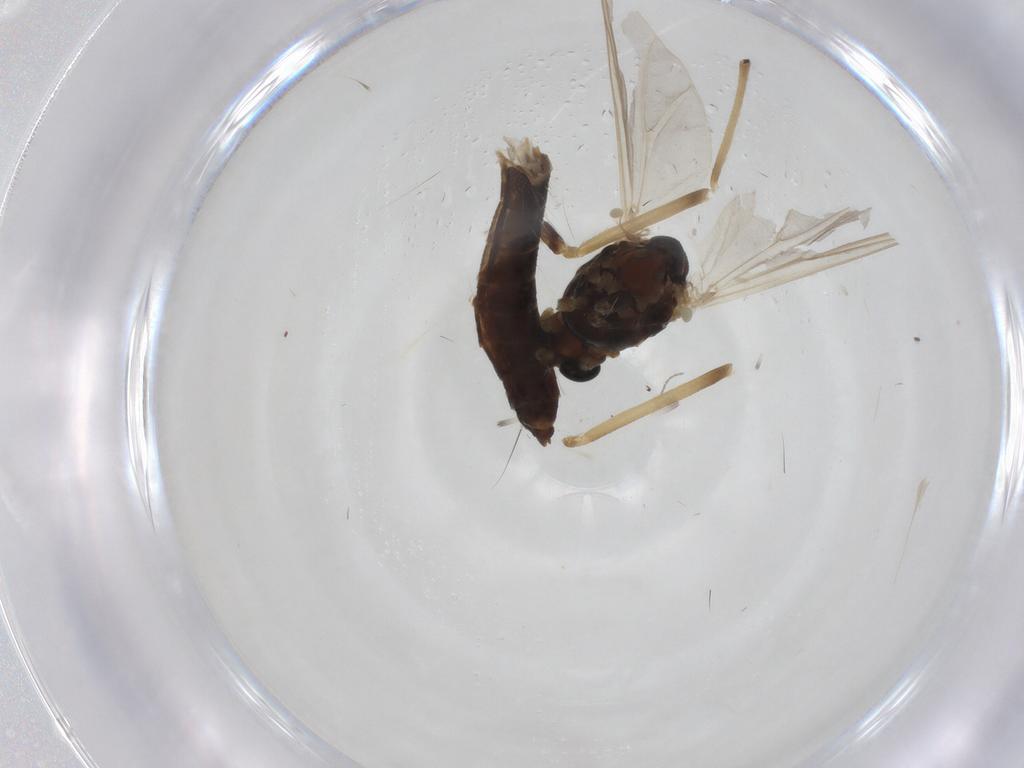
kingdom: Animalia
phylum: Arthropoda
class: Insecta
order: Diptera
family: Chironomidae
